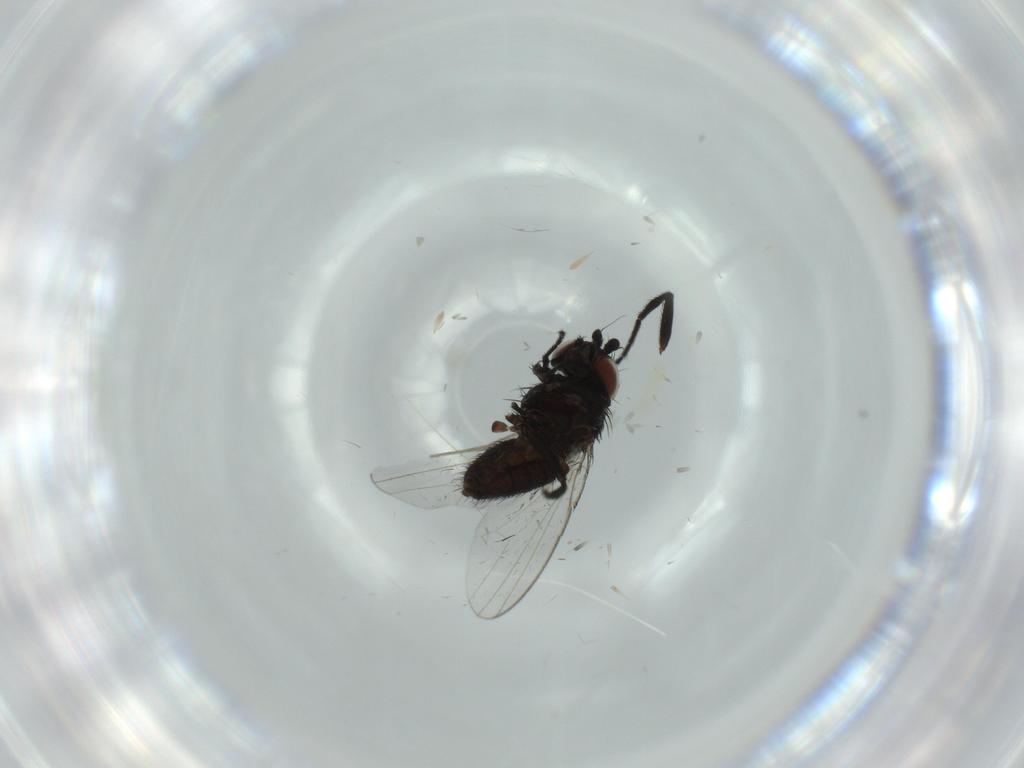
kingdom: Animalia
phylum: Arthropoda
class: Insecta
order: Diptera
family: Milichiidae
